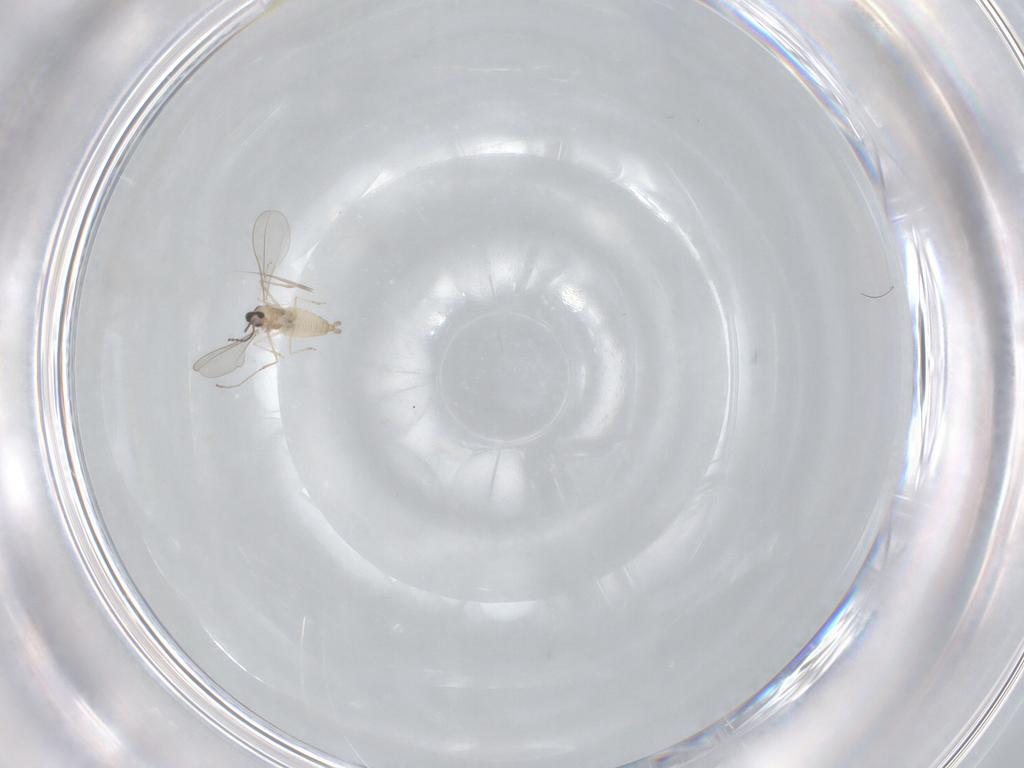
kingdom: Animalia
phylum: Arthropoda
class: Insecta
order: Diptera
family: Cecidomyiidae
